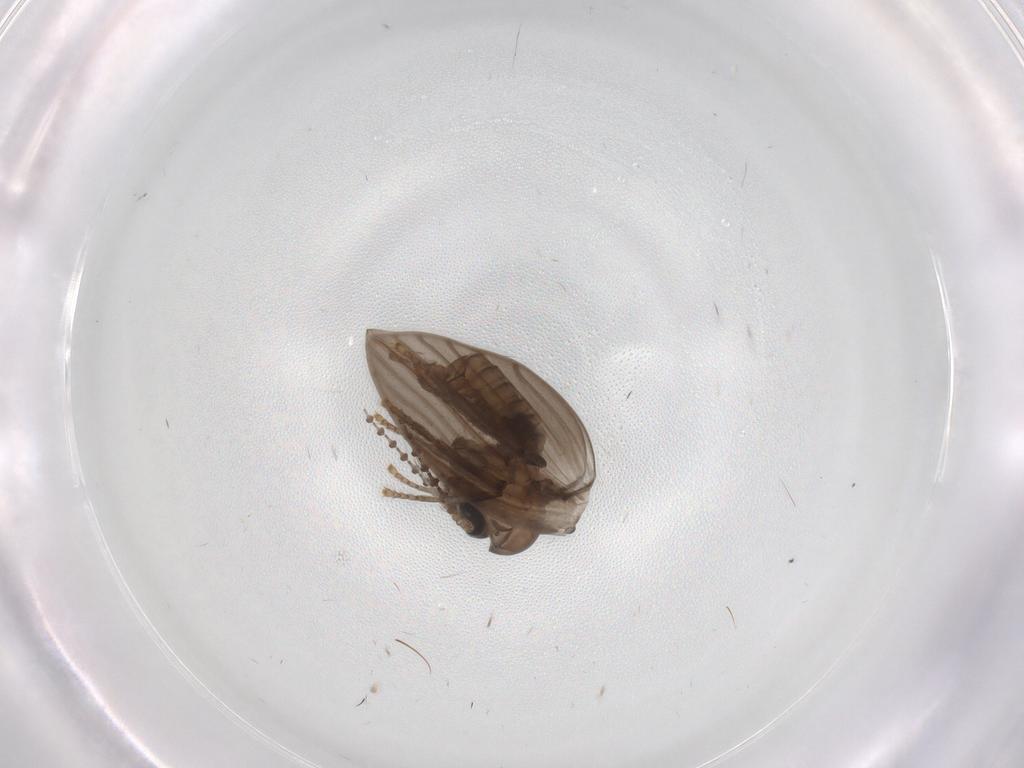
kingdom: Animalia
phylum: Arthropoda
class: Insecta
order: Diptera
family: Psychodidae
